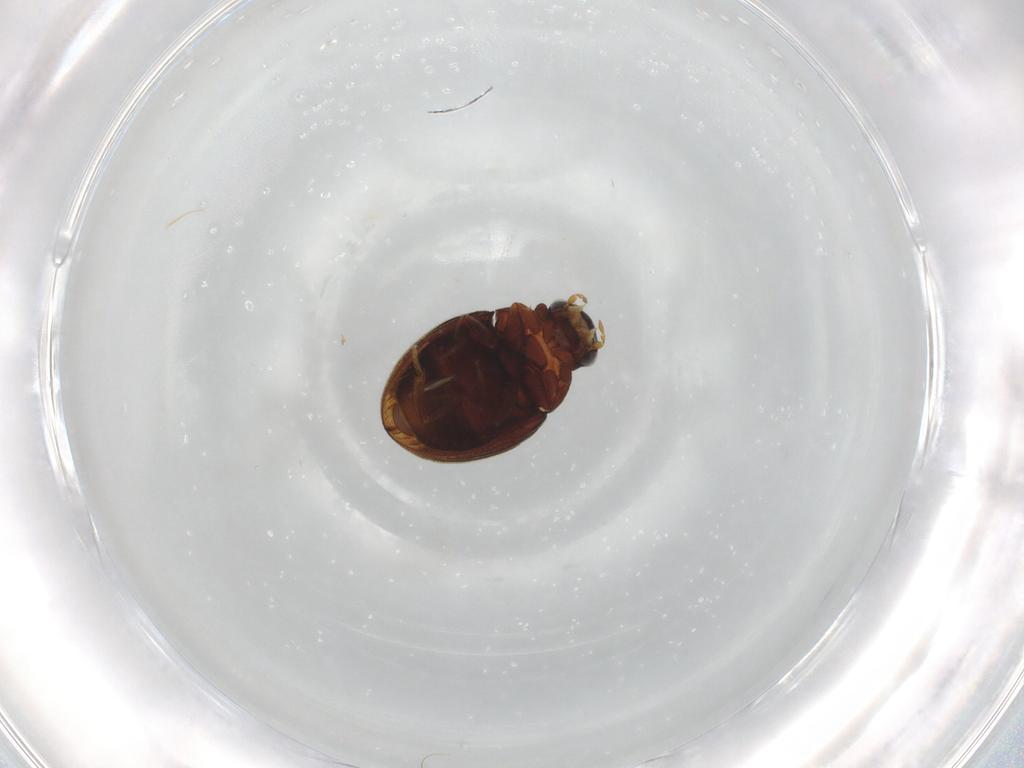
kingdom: Animalia
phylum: Arthropoda
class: Insecta
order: Coleoptera
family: Hydrophilidae
